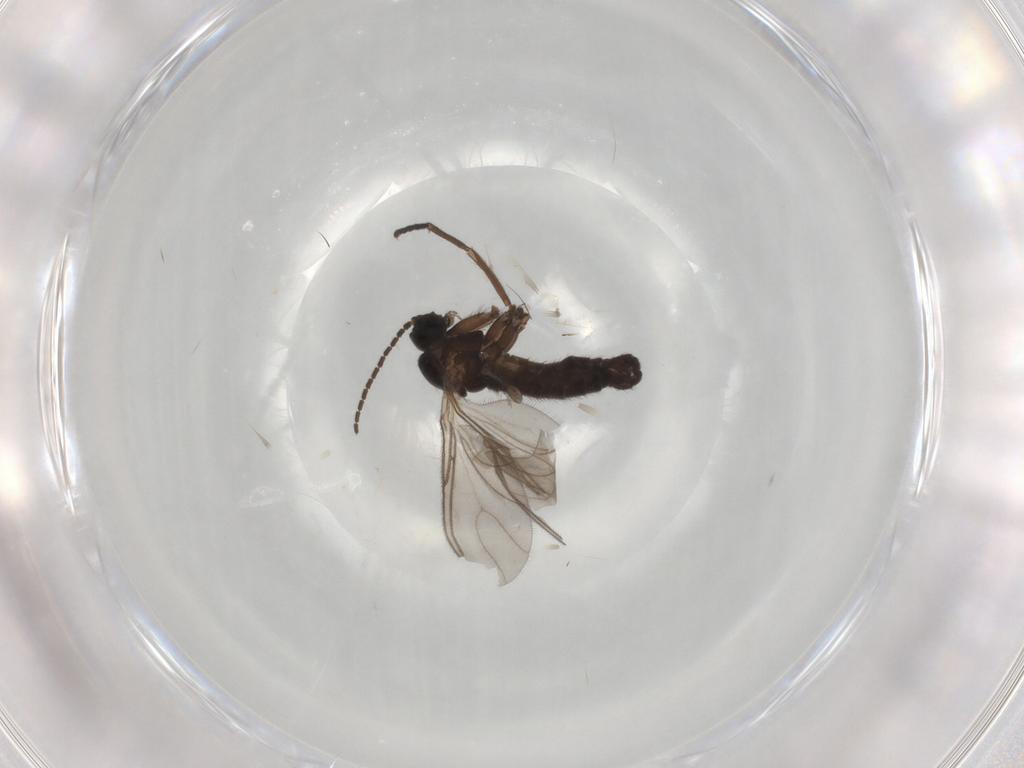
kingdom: Animalia
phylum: Arthropoda
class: Insecta
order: Diptera
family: Sciaridae
